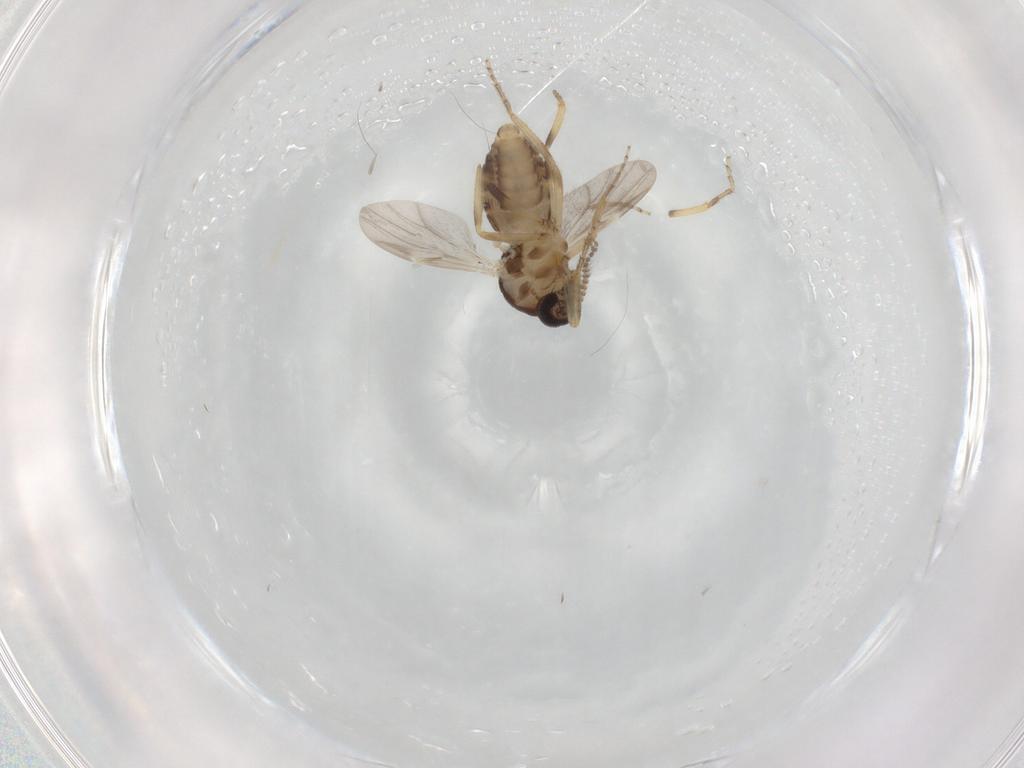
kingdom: Animalia
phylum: Arthropoda
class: Insecta
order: Diptera
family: Ceratopogonidae
